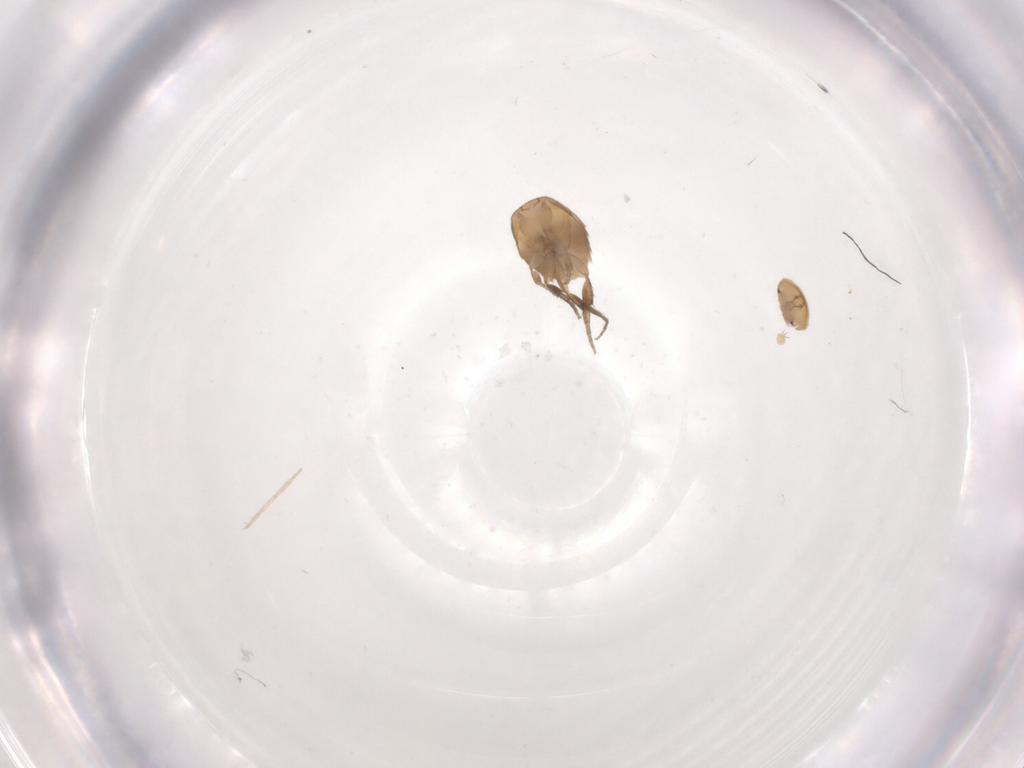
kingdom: Animalia
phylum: Arthropoda
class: Insecta
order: Diptera
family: Phoridae
